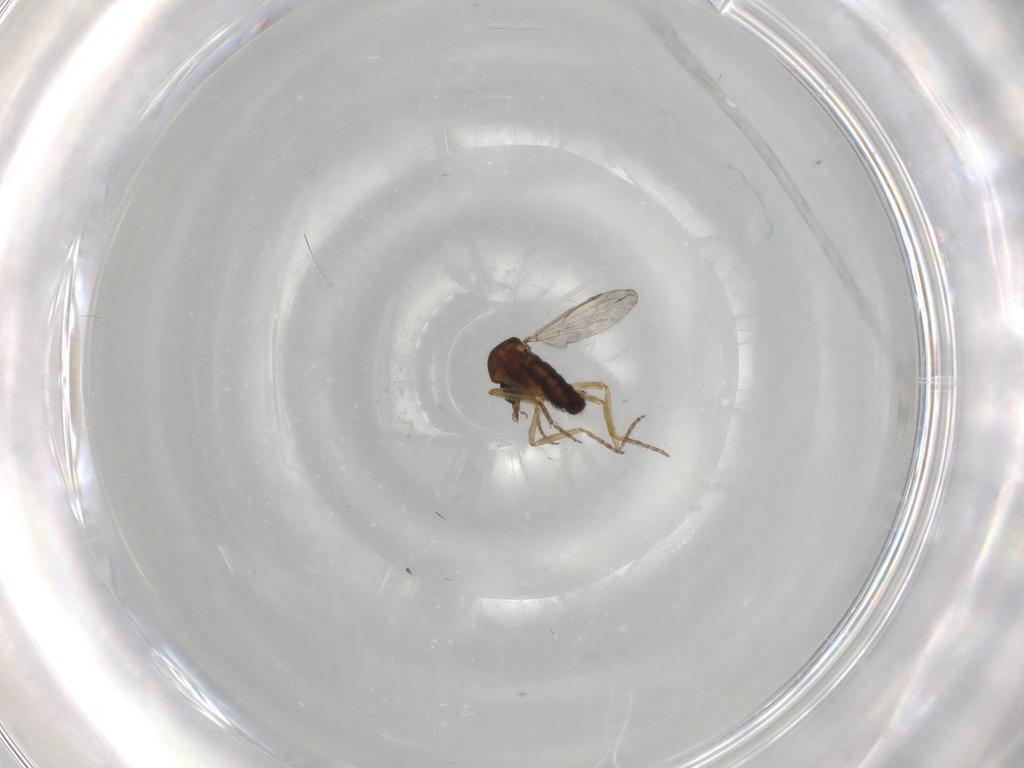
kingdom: Animalia
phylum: Arthropoda
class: Insecta
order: Diptera
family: Ceratopogonidae
